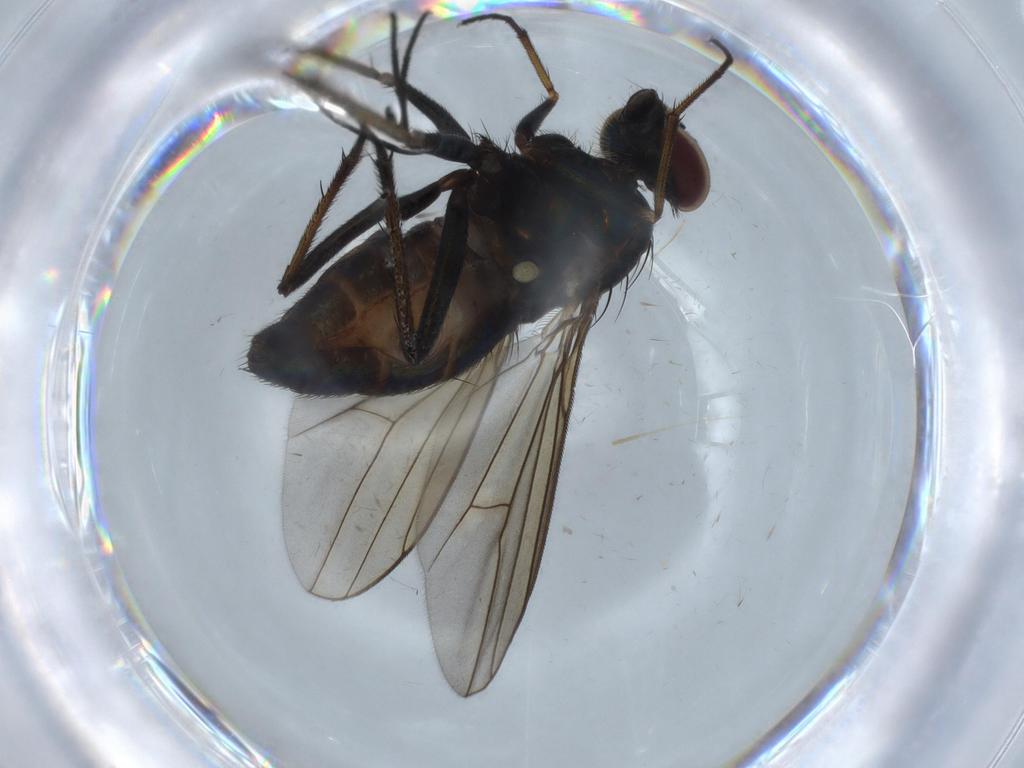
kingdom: Animalia
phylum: Arthropoda
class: Insecta
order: Diptera
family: Dolichopodidae
